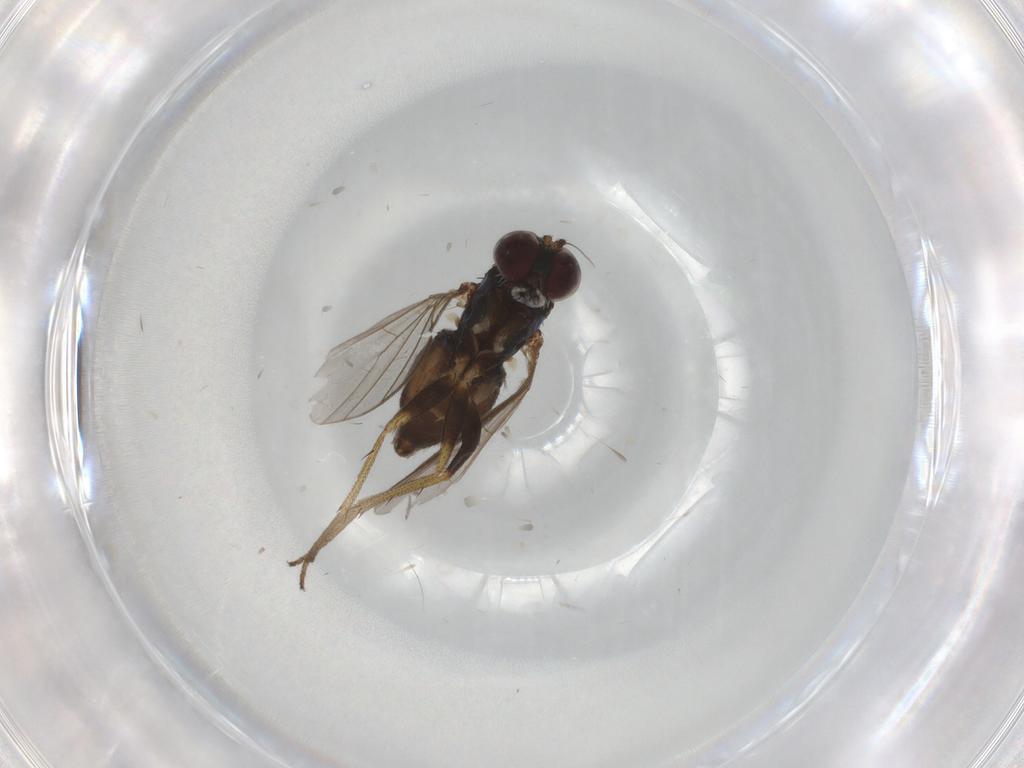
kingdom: Animalia
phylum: Arthropoda
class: Insecta
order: Diptera
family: Dolichopodidae
